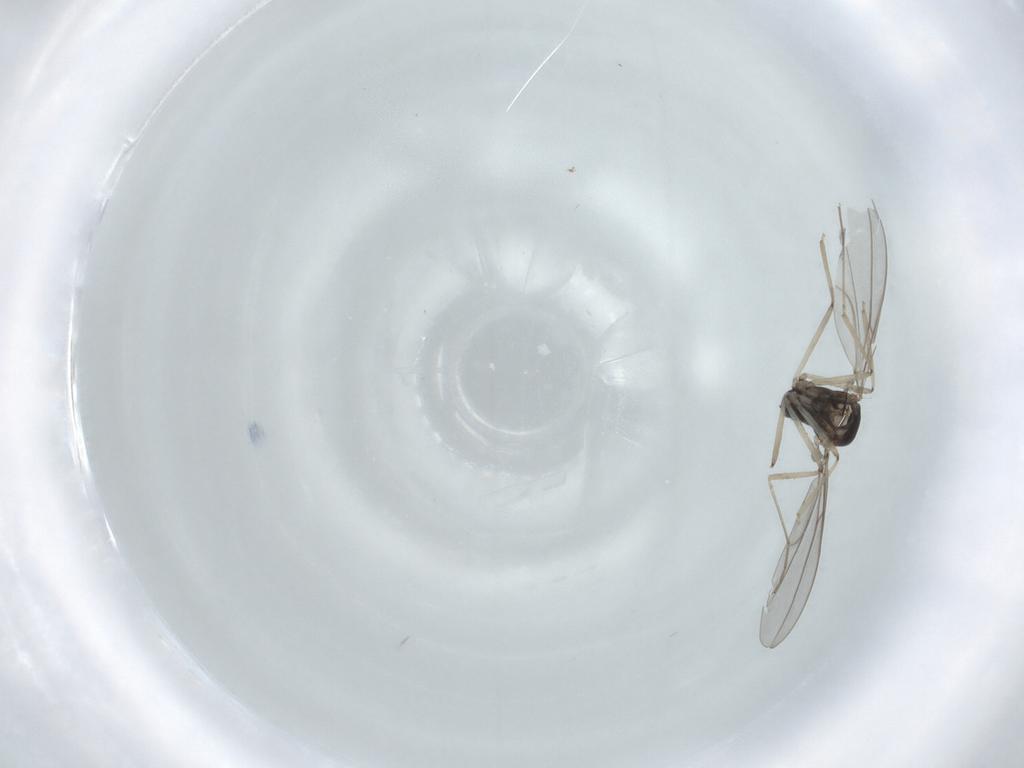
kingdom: Animalia
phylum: Arthropoda
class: Insecta
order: Diptera
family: Cecidomyiidae
